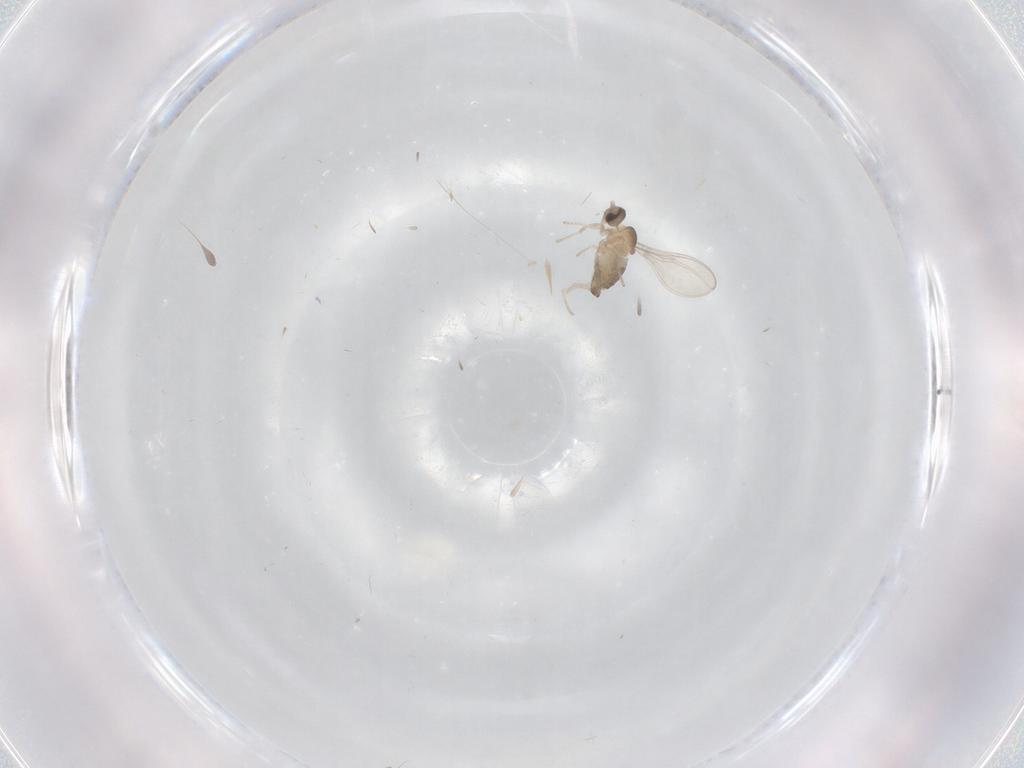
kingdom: Animalia
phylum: Arthropoda
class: Insecta
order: Diptera
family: Cecidomyiidae
